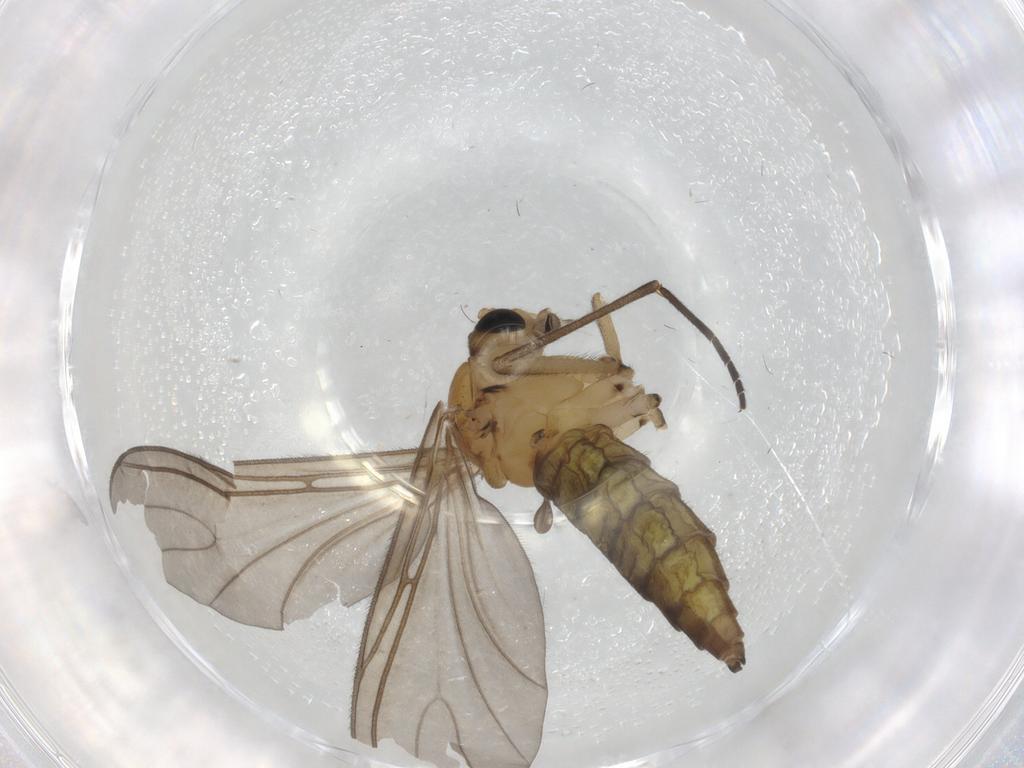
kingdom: Animalia
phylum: Arthropoda
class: Insecta
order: Diptera
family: Sciaridae
